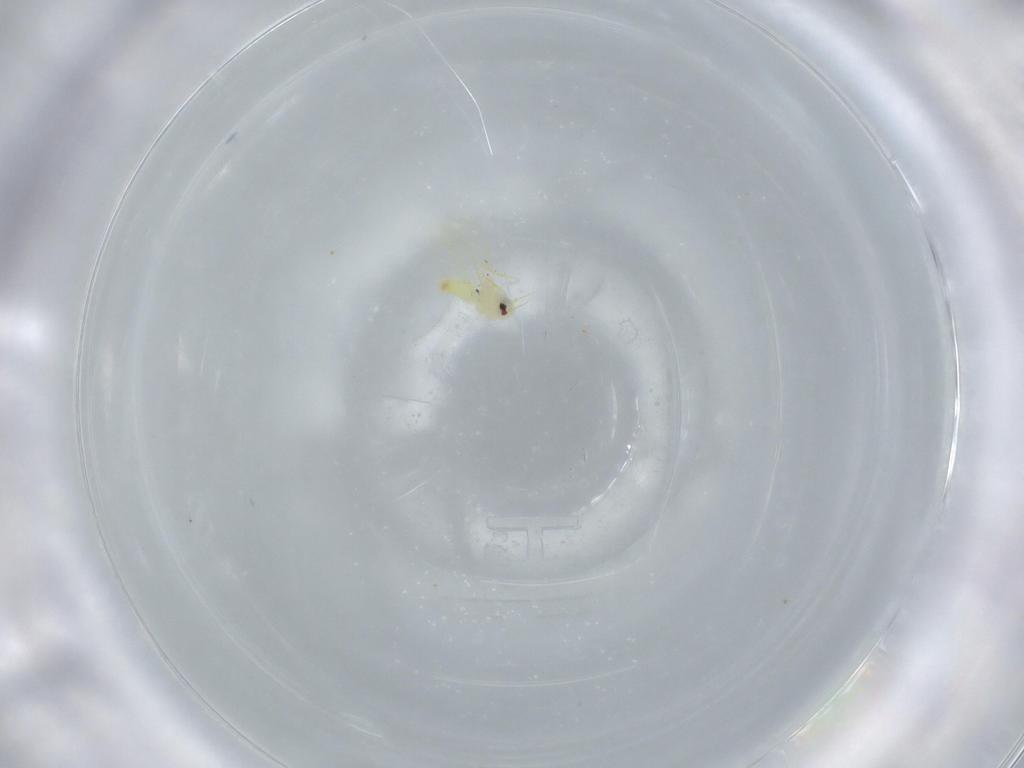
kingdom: Animalia
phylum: Arthropoda
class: Insecta
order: Hemiptera
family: Aleyrodidae
